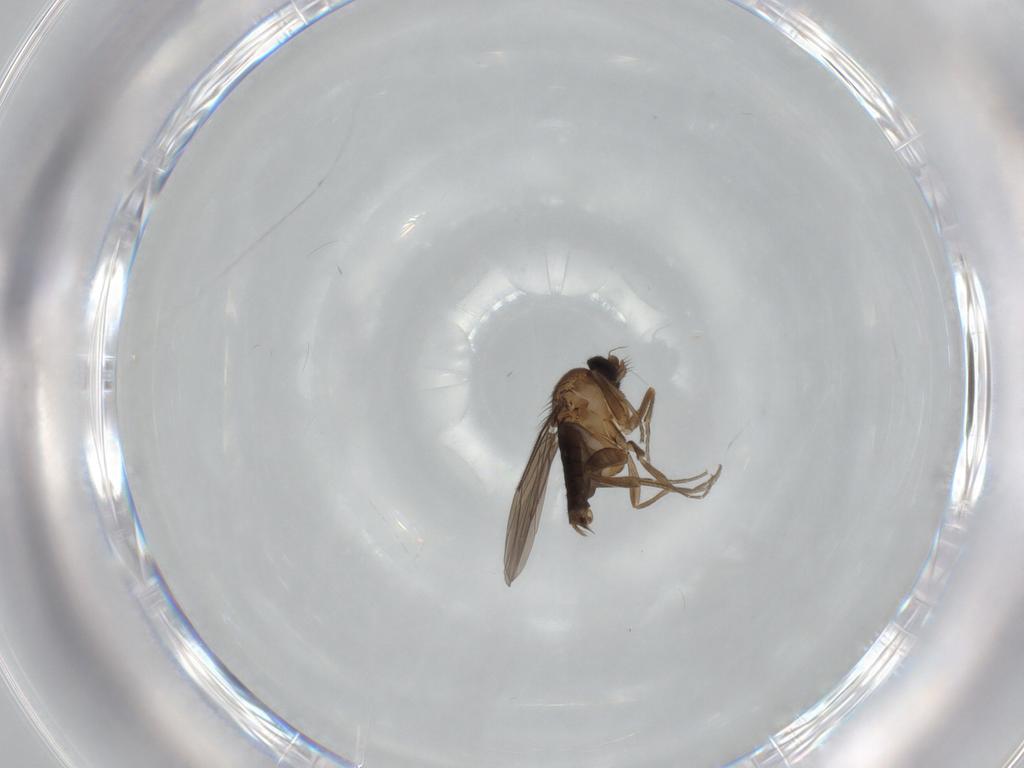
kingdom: Animalia
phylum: Arthropoda
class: Insecta
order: Diptera
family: Phoridae
